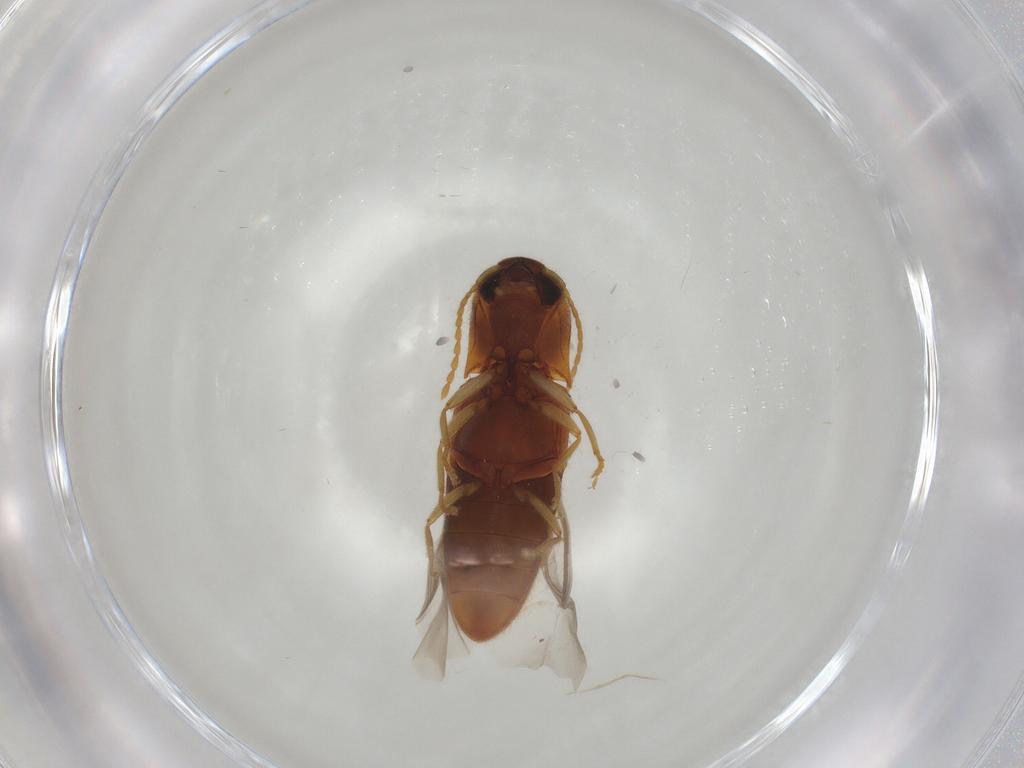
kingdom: Animalia
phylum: Arthropoda
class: Insecta
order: Coleoptera
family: Elateridae
